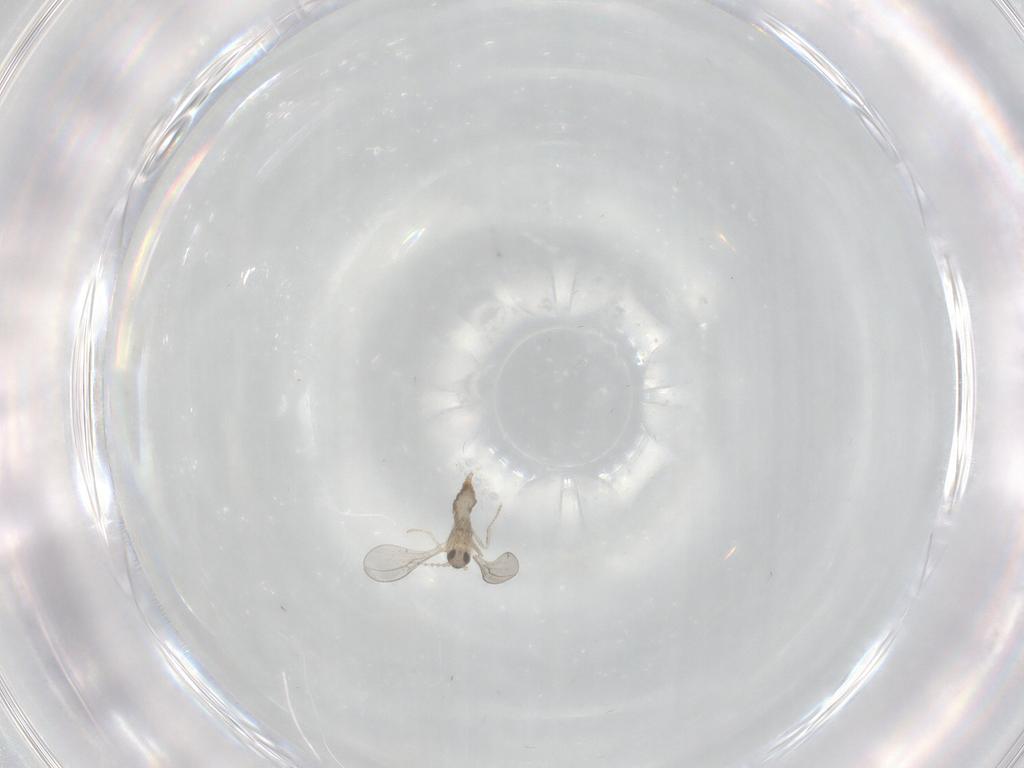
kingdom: Animalia
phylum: Arthropoda
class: Insecta
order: Diptera
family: Cecidomyiidae
